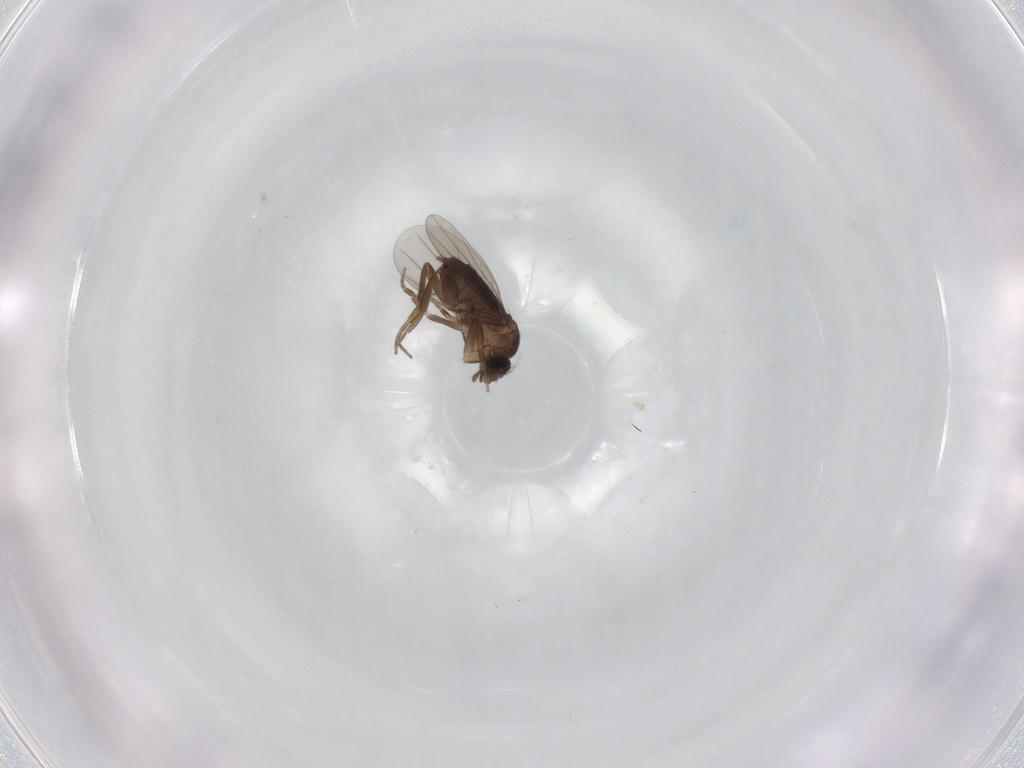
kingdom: Animalia
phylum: Arthropoda
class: Insecta
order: Diptera
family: Phoridae
